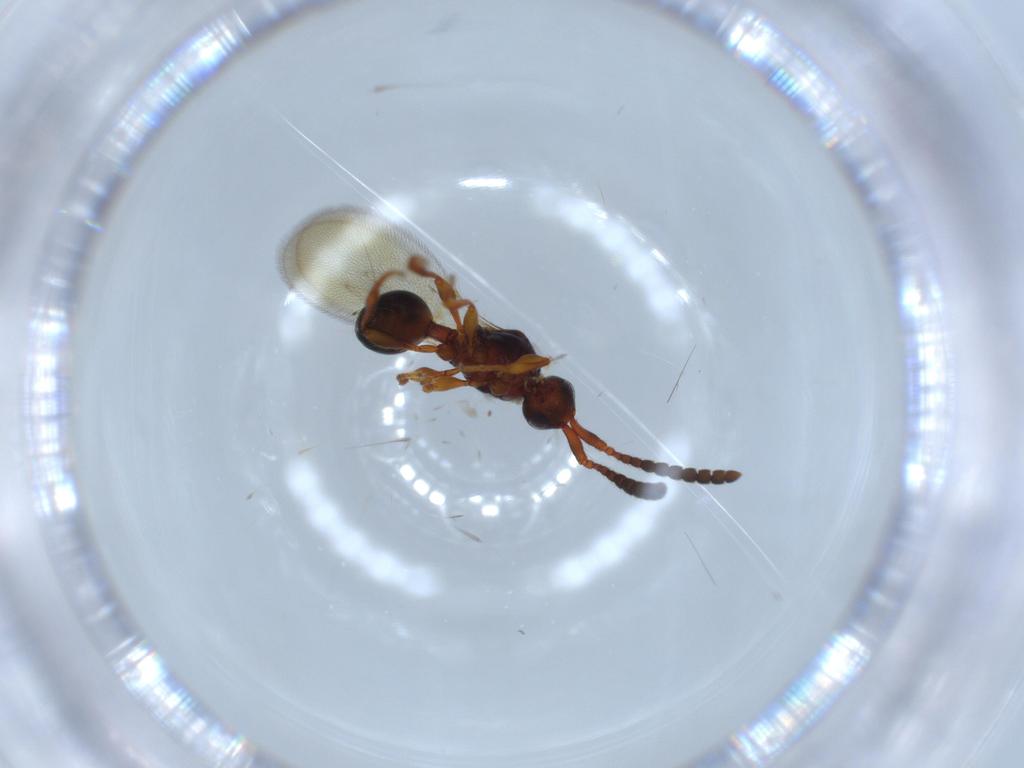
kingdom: Animalia
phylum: Arthropoda
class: Insecta
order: Hymenoptera
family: Diapriidae
